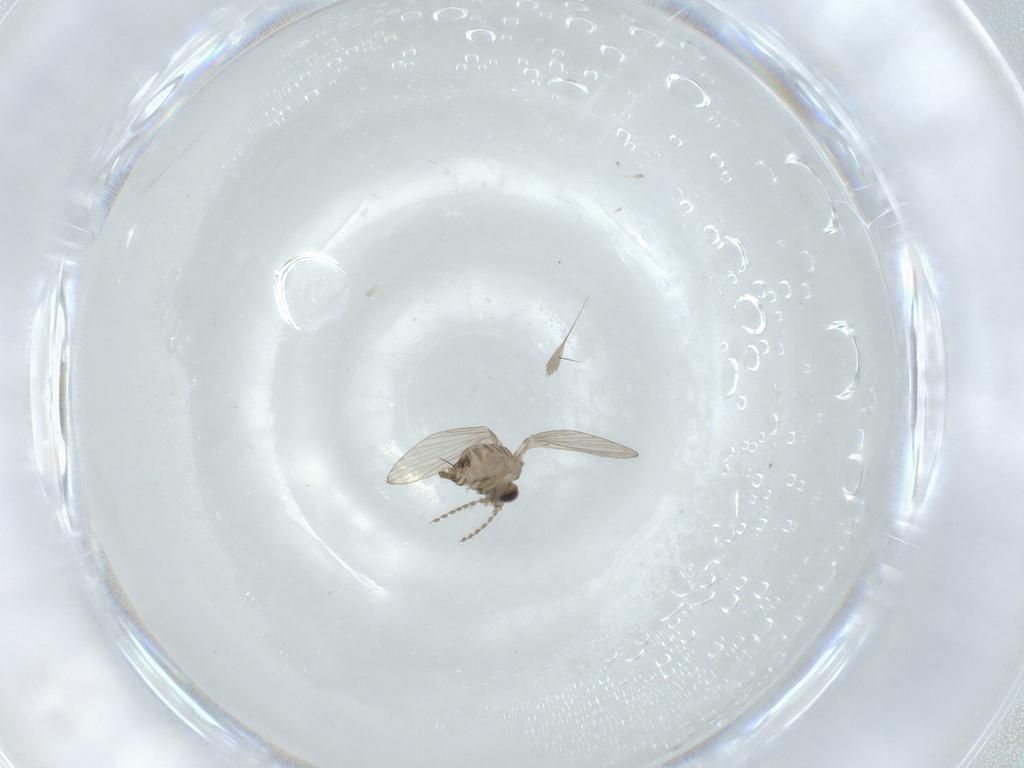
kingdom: Animalia
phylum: Arthropoda
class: Insecta
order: Diptera
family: Psychodidae
